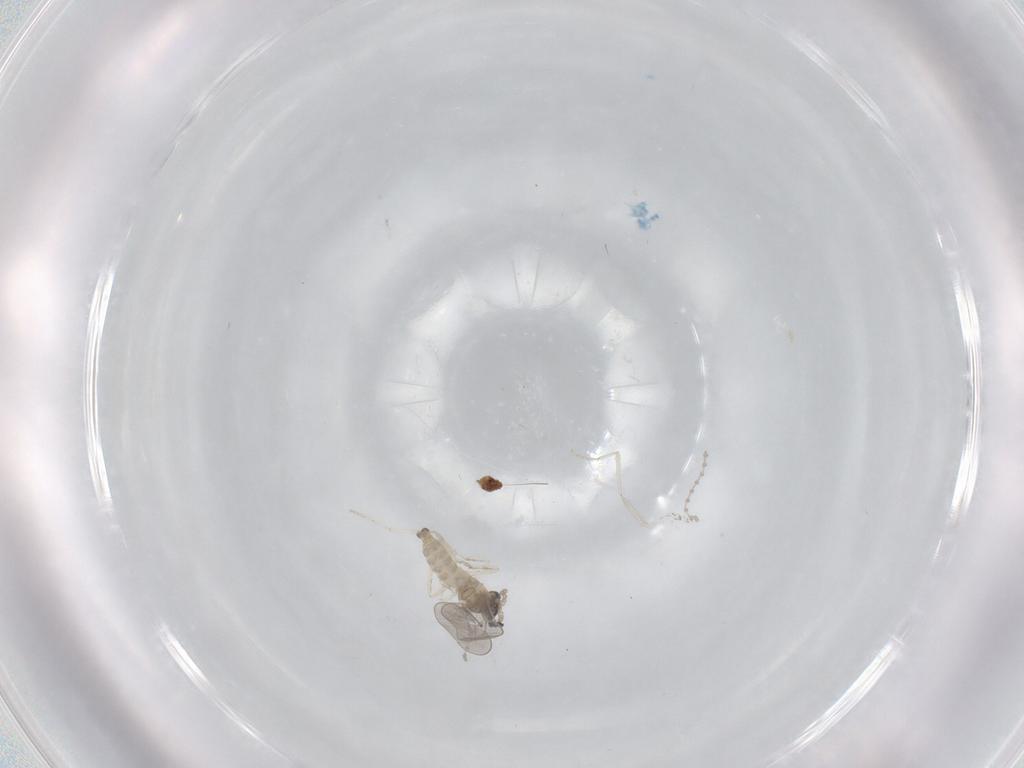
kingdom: Animalia
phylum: Arthropoda
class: Insecta
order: Diptera
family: Cecidomyiidae
